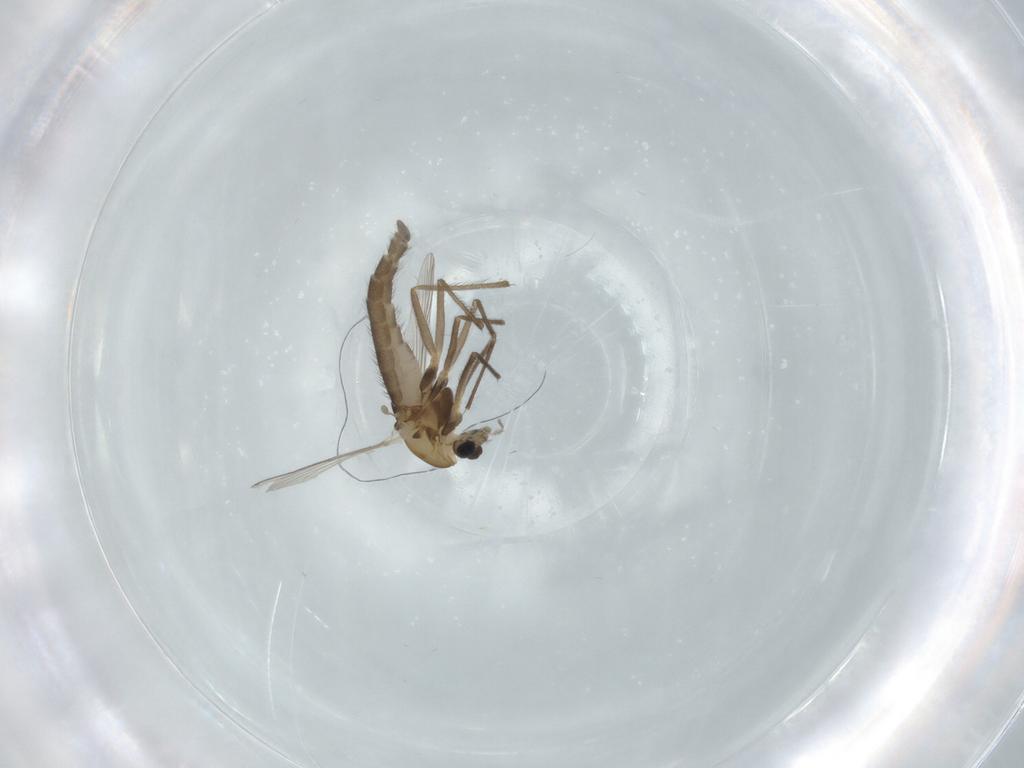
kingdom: Animalia
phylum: Arthropoda
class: Insecta
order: Diptera
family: Chironomidae
